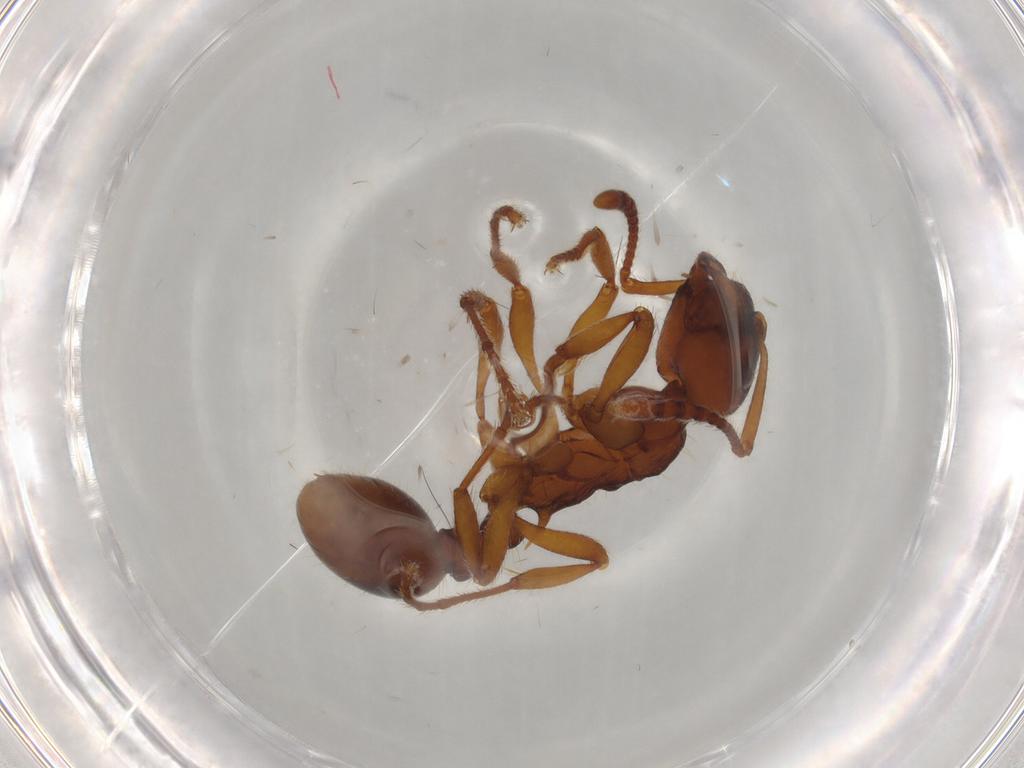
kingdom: Animalia
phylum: Arthropoda
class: Insecta
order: Hymenoptera
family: Formicidae
